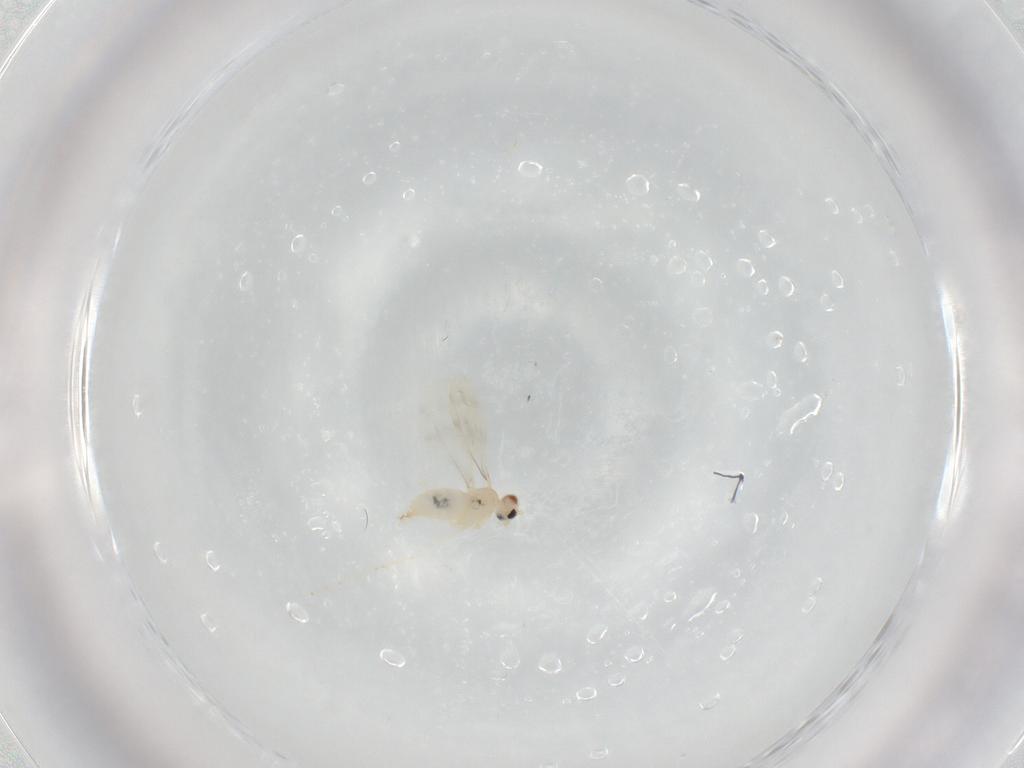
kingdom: Animalia
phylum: Arthropoda
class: Insecta
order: Diptera
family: Cecidomyiidae
